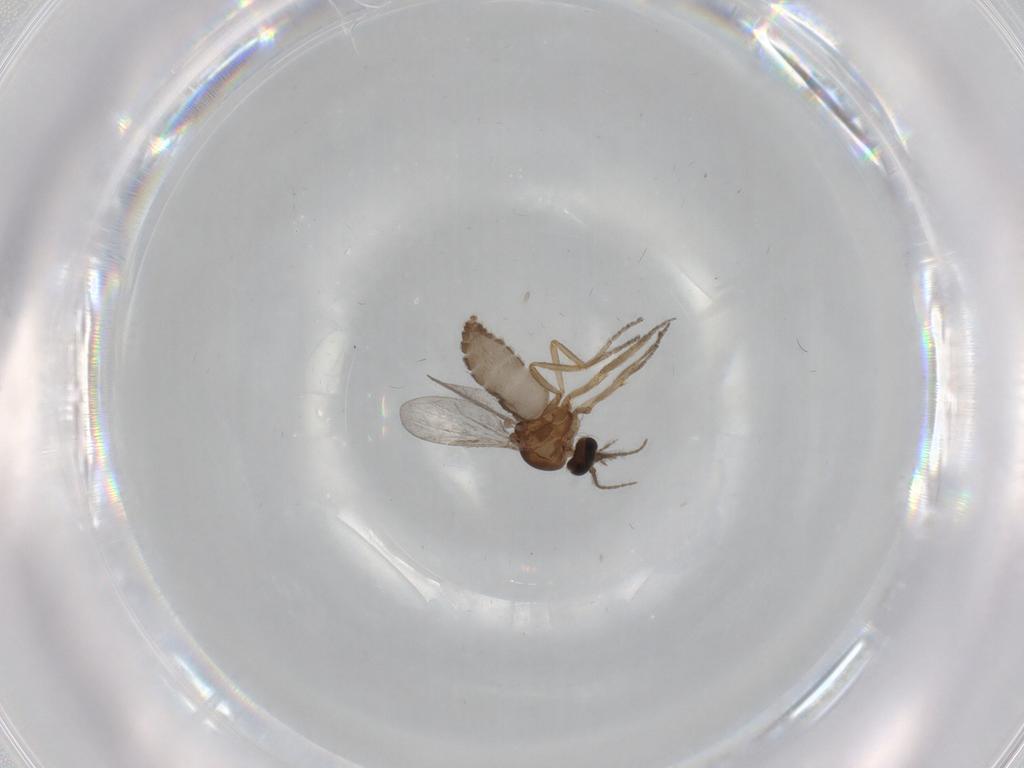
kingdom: Animalia
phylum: Arthropoda
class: Insecta
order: Diptera
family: Ceratopogonidae
